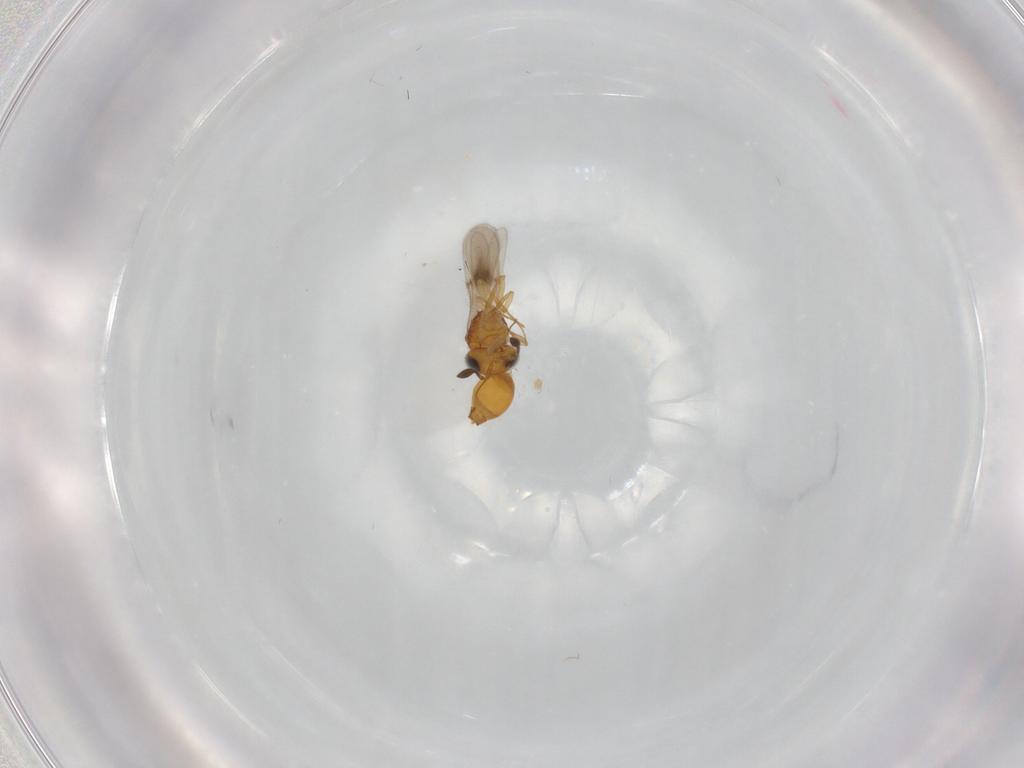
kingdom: Animalia
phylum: Arthropoda
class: Insecta
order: Hymenoptera
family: Scelionidae
